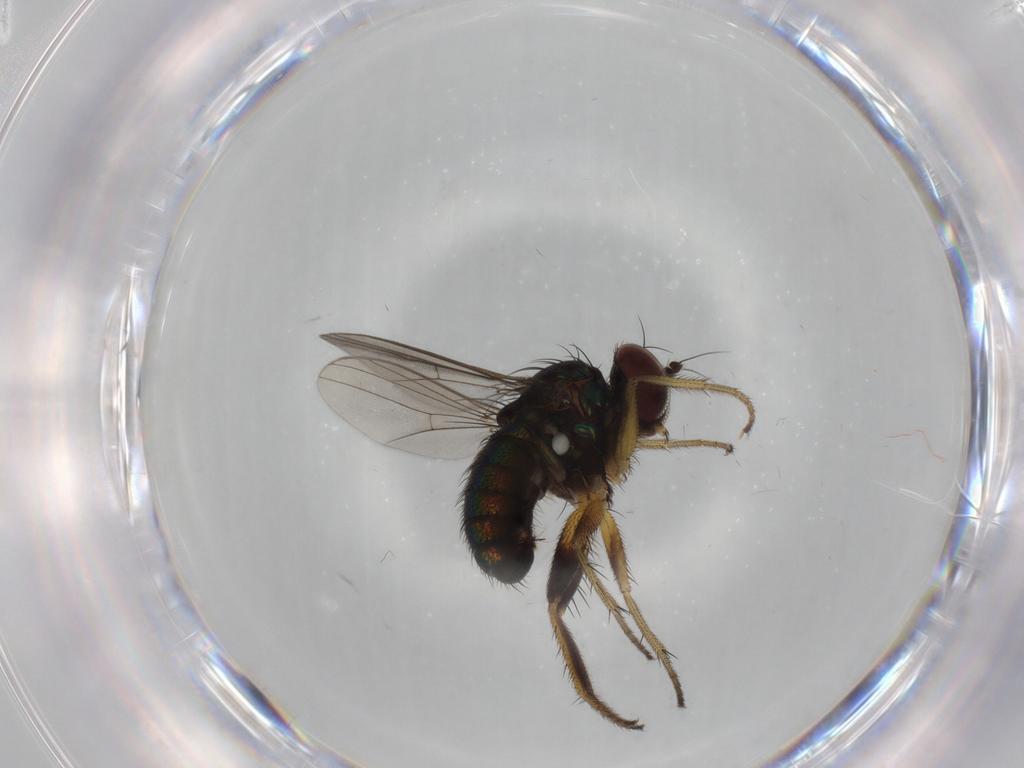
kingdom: Animalia
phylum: Arthropoda
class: Insecta
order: Diptera
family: Dolichopodidae
